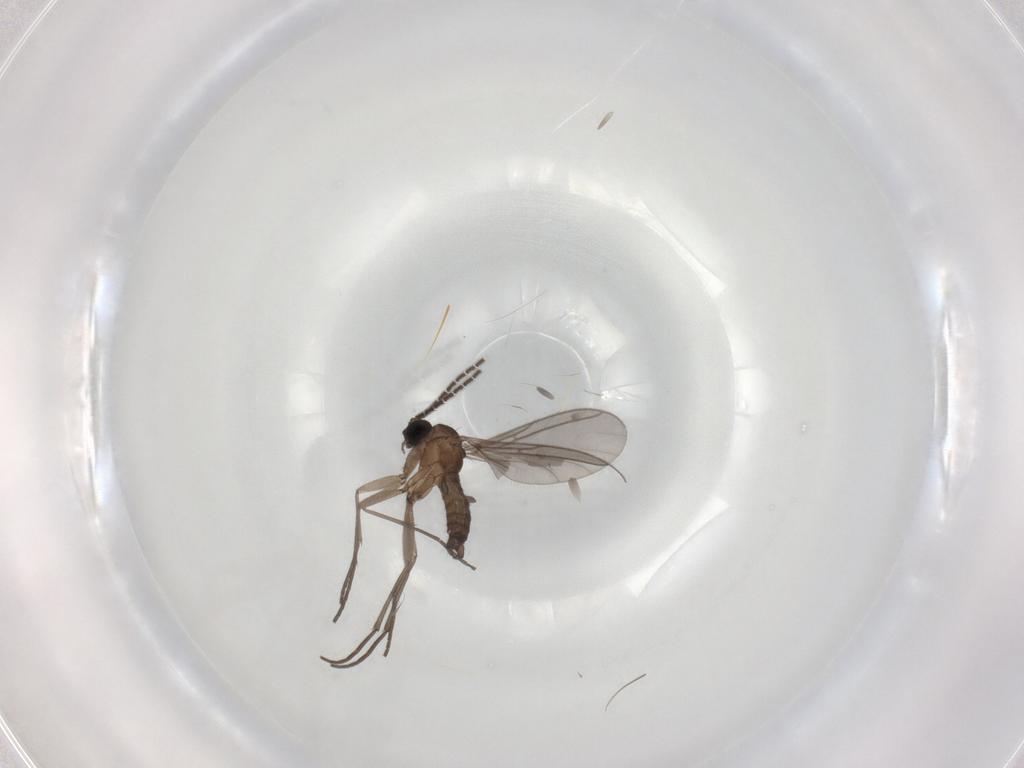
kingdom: Animalia
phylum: Arthropoda
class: Insecta
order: Diptera
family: Sciaridae
